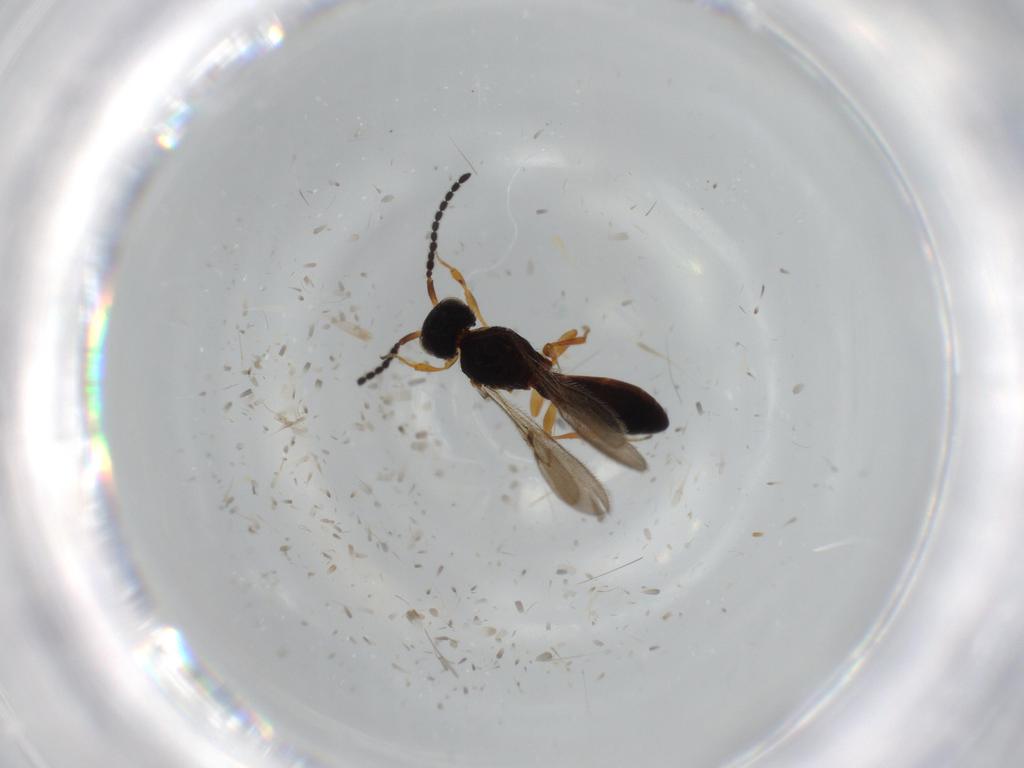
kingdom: Animalia
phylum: Arthropoda
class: Insecta
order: Hymenoptera
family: Scelionidae
